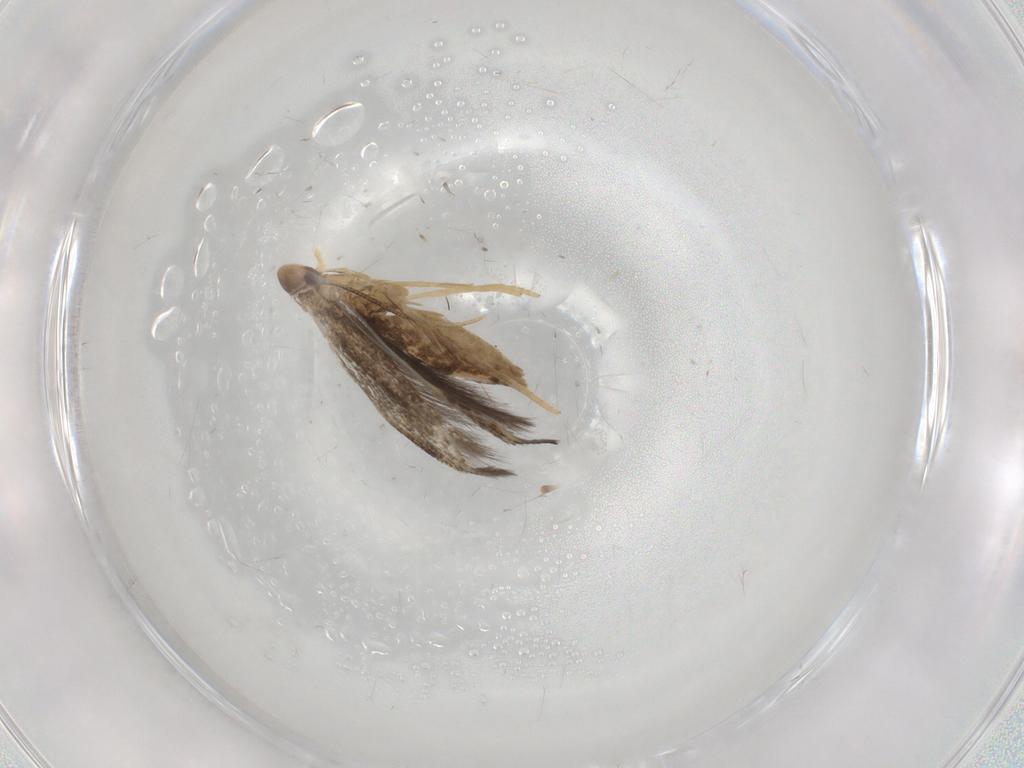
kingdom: Animalia
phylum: Arthropoda
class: Insecta
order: Lepidoptera
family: Gelechiidae
